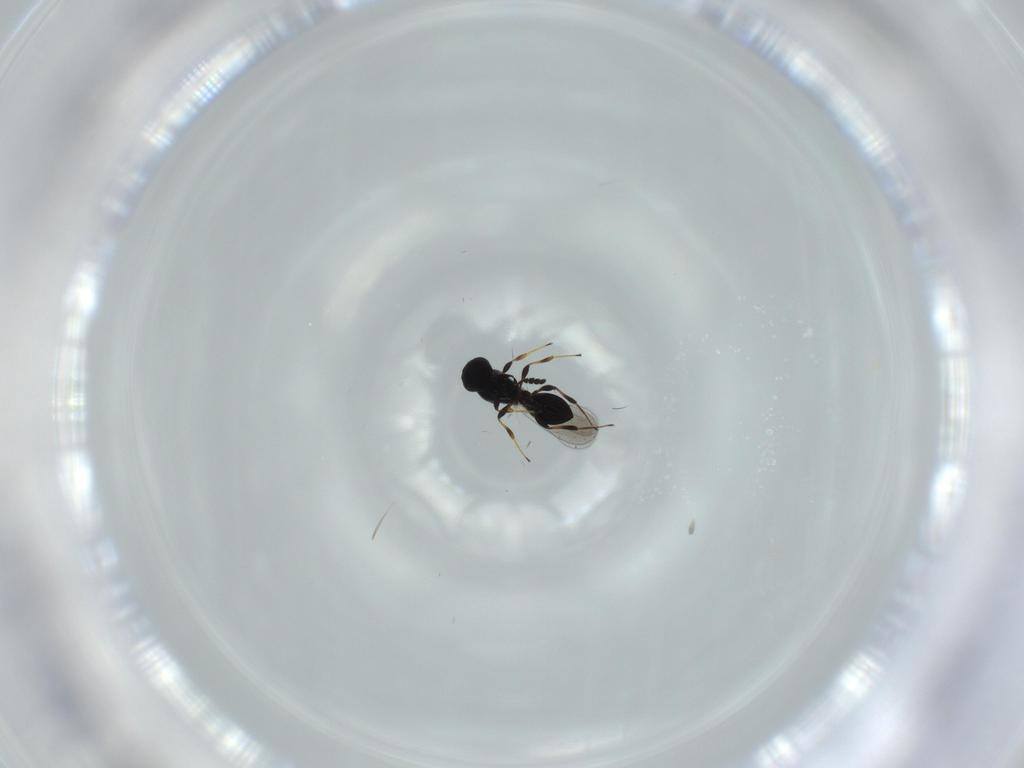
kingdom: Animalia
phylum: Arthropoda
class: Insecta
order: Hymenoptera
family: Platygastridae
